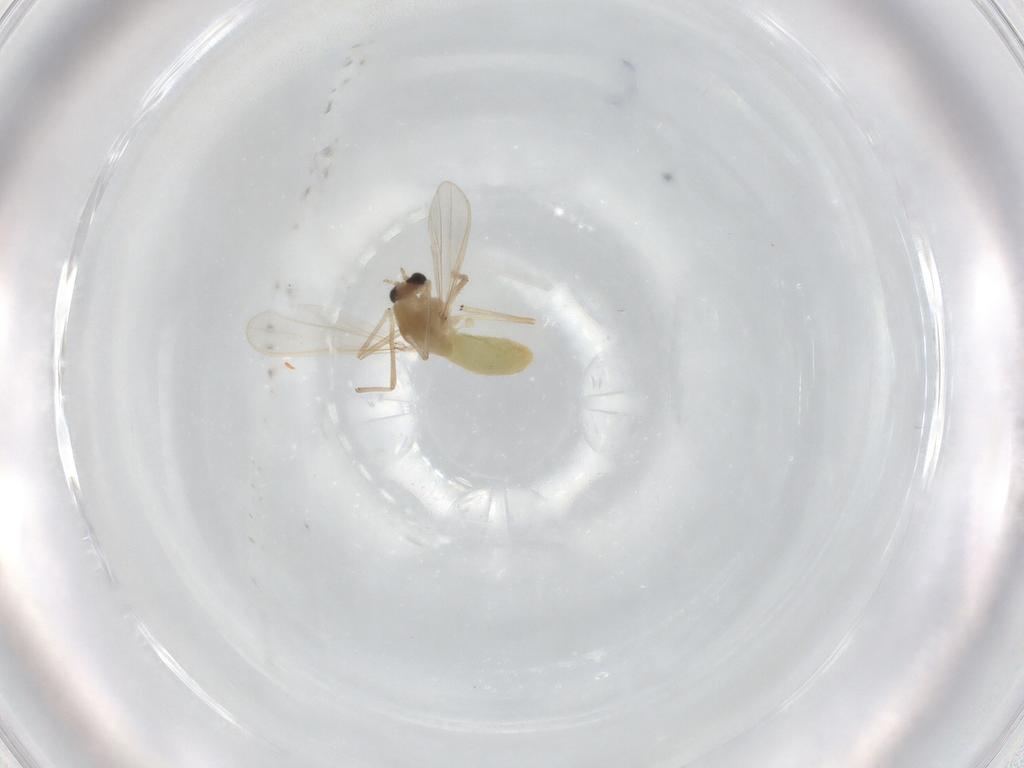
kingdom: Animalia
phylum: Arthropoda
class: Insecta
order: Diptera
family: Chironomidae
